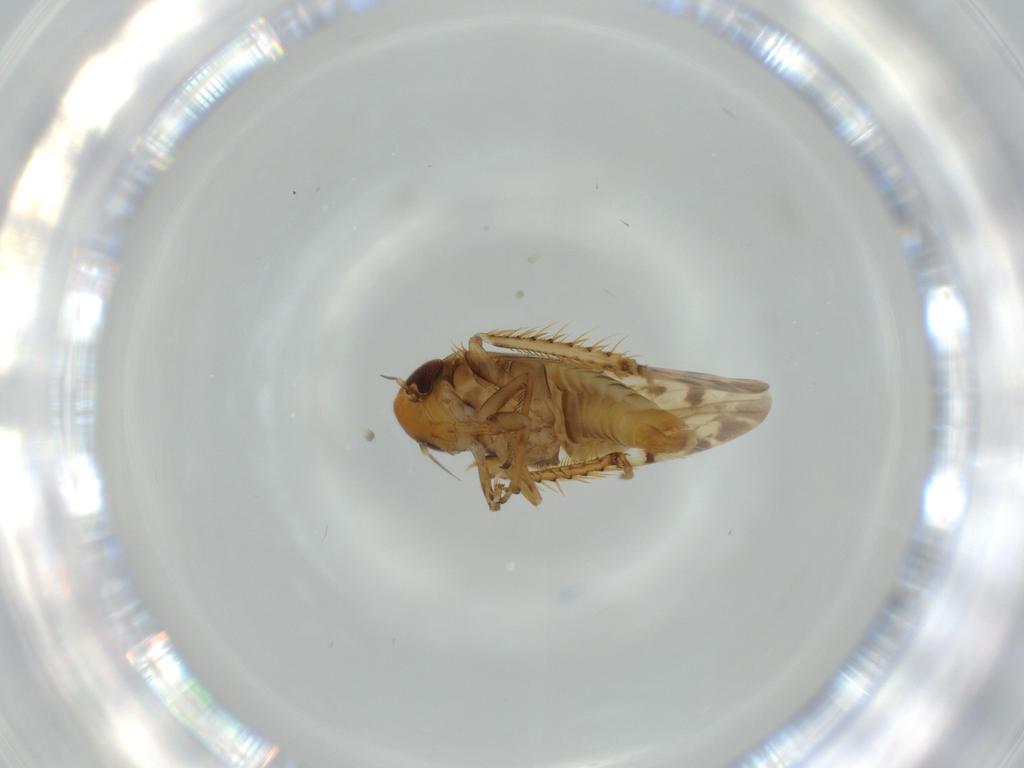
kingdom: Animalia
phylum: Arthropoda
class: Insecta
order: Hemiptera
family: Cicadellidae
